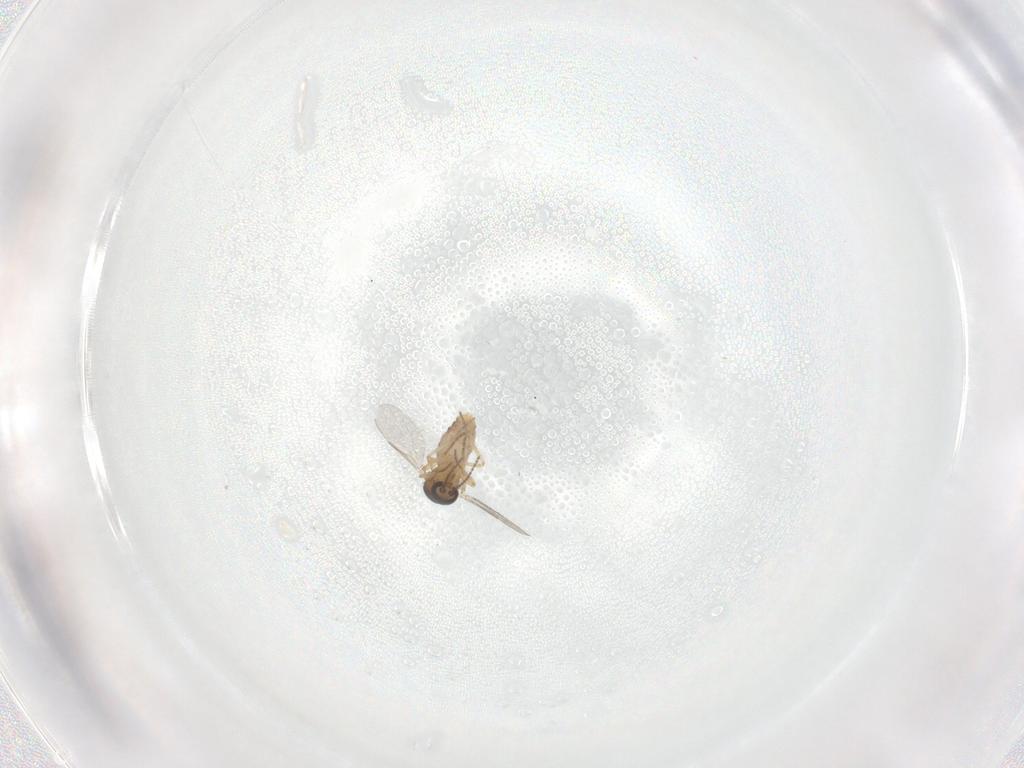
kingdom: Animalia
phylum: Arthropoda
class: Insecta
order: Diptera
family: Ceratopogonidae
